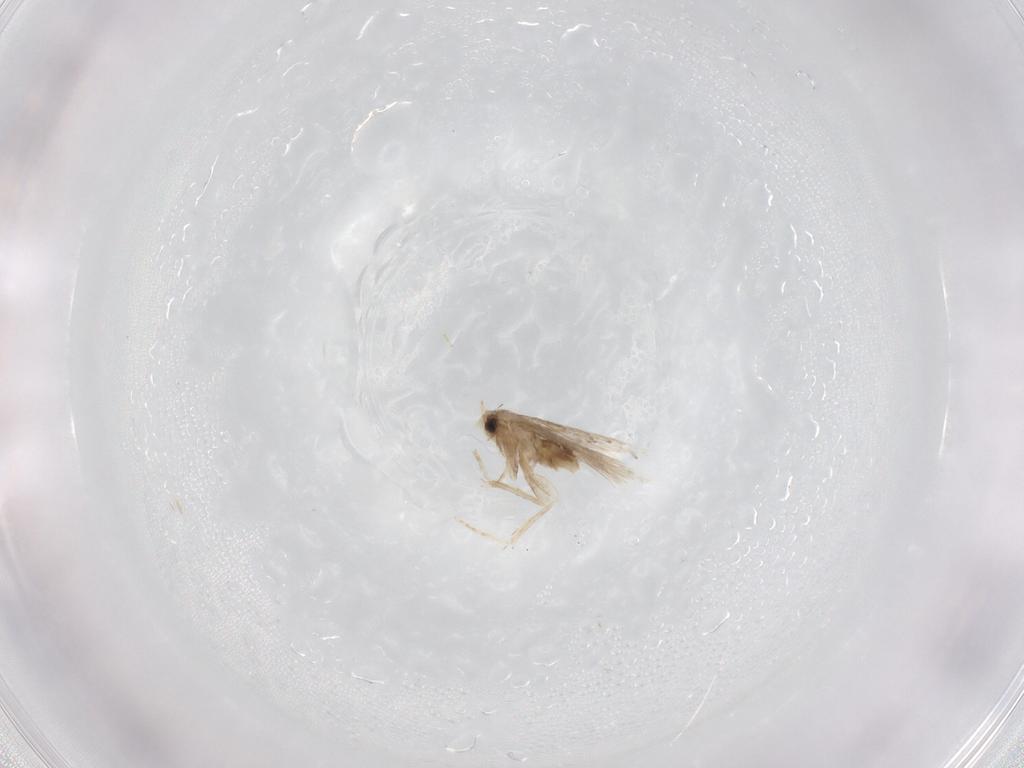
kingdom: Animalia
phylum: Arthropoda
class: Insecta
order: Lepidoptera
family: Nepticulidae
